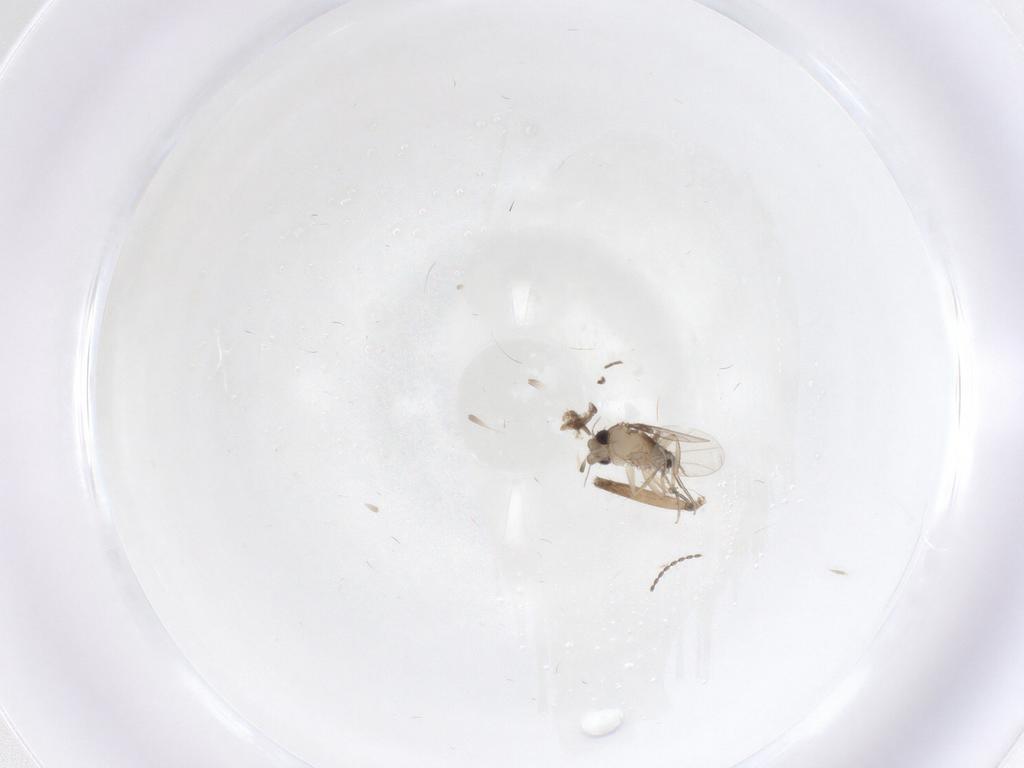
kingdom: Animalia
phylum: Arthropoda
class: Insecta
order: Diptera
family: Phoridae
